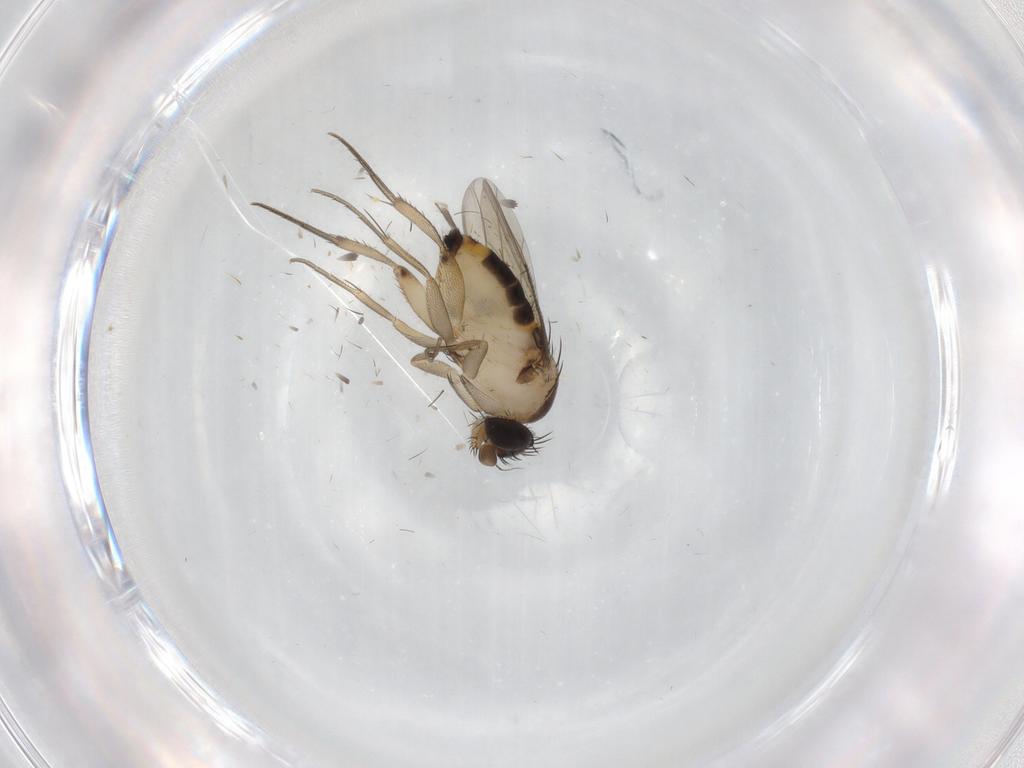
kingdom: Animalia
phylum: Arthropoda
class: Insecta
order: Diptera
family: Phoridae
